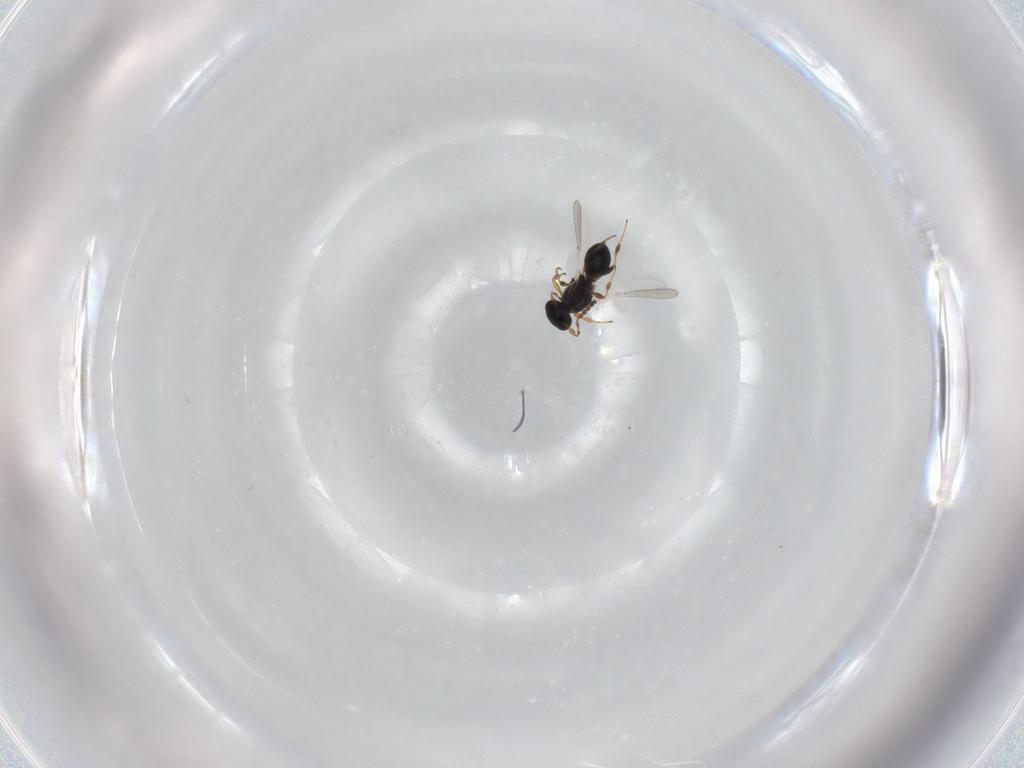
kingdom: Animalia
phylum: Arthropoda
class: Insecta
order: Hymenoptera
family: Platygastridae
